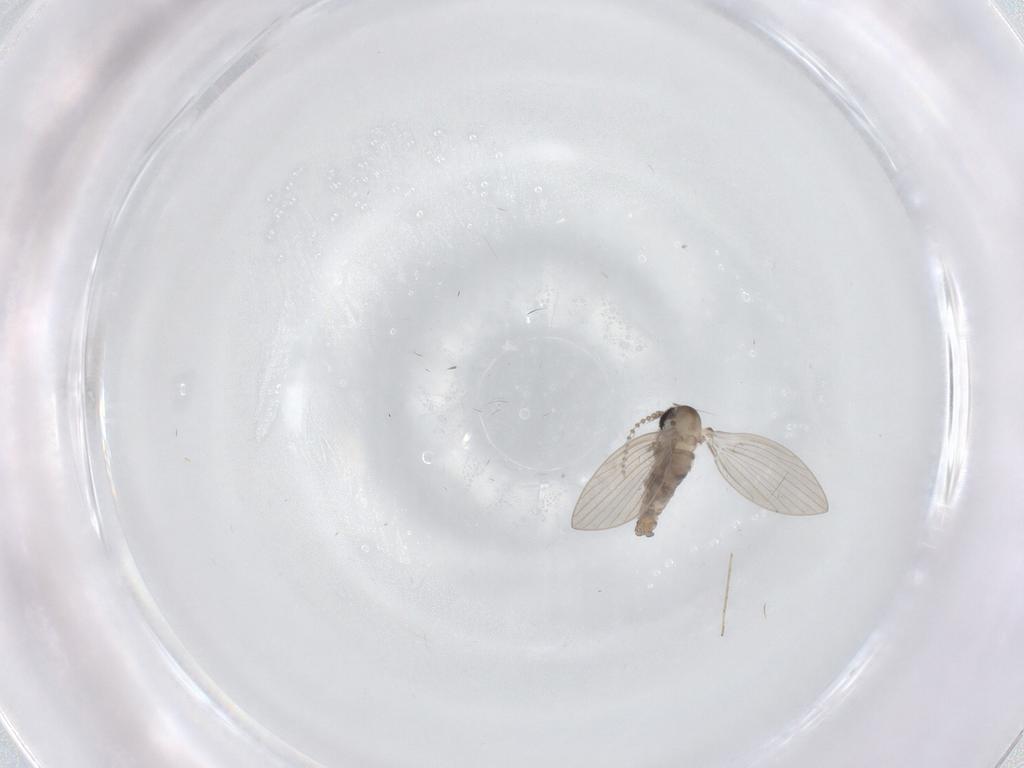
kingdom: Animalia
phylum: Arthropoda
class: Insecta
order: Diptera
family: Psychodidae
